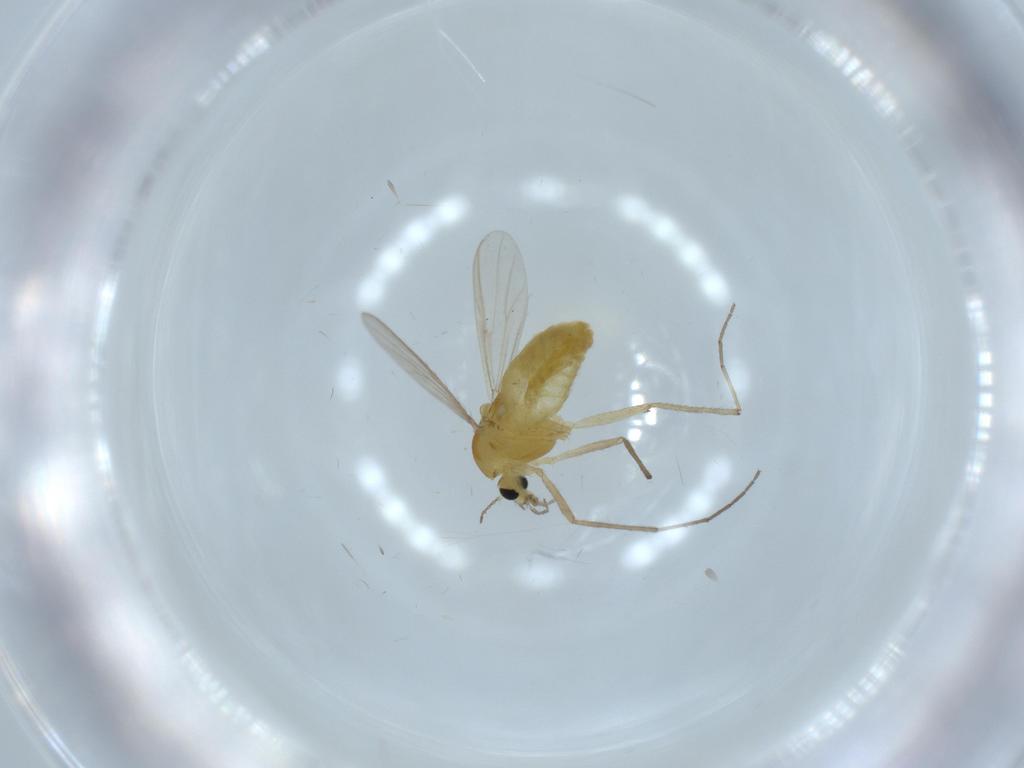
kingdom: Animalia
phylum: Arthropoda
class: Insecta
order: Diptera
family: Chironomidae
